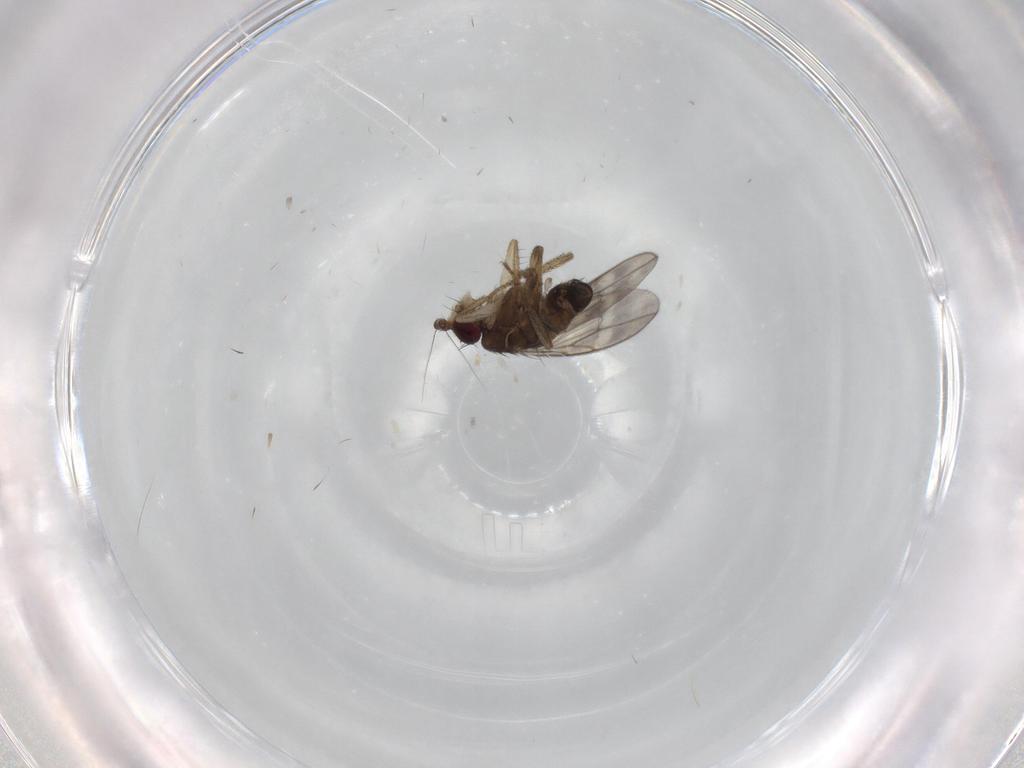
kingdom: Animalia
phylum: Arthropoda
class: Insecta
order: Diptera
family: Sphaeroceridae
